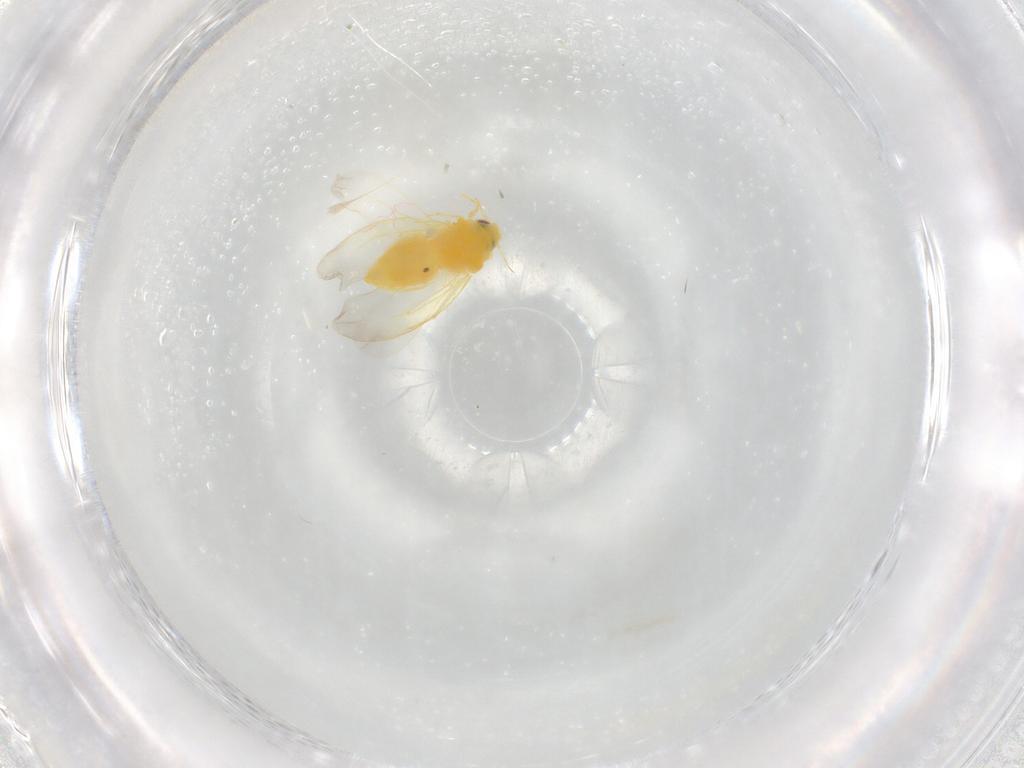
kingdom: Animalia
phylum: Arthropoda
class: Insecta
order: Hemiptera
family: Aleyrodidae
